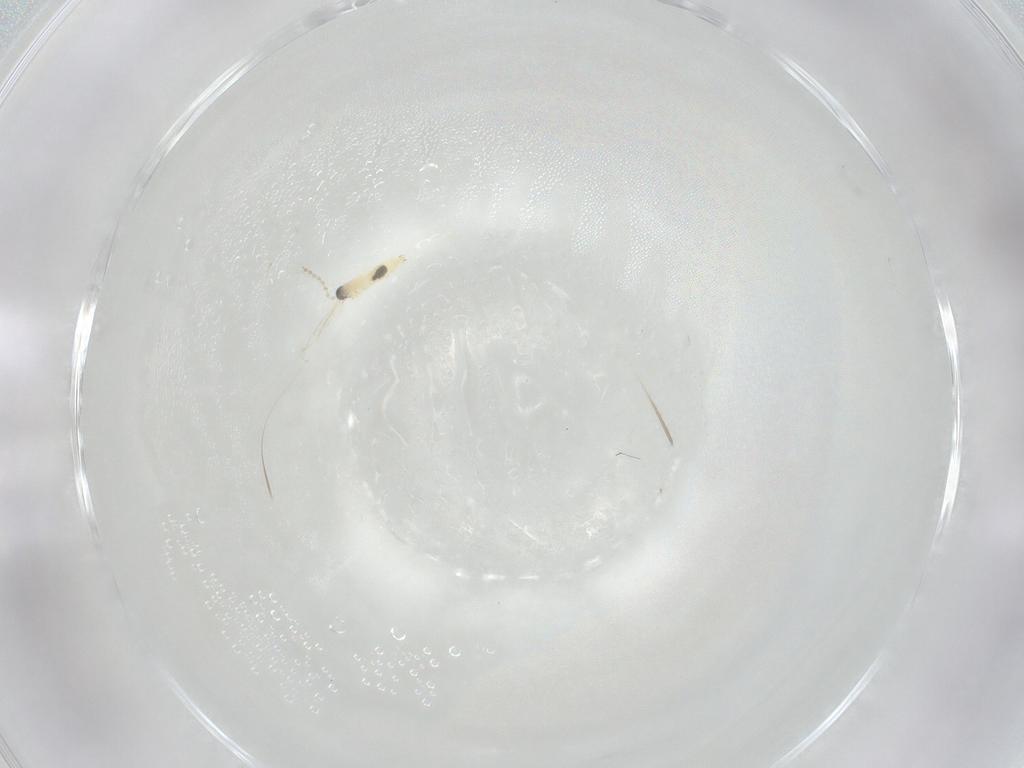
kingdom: Animalia
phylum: Arthropoda
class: Insecta
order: Diptera
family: Cecidomyiidae
